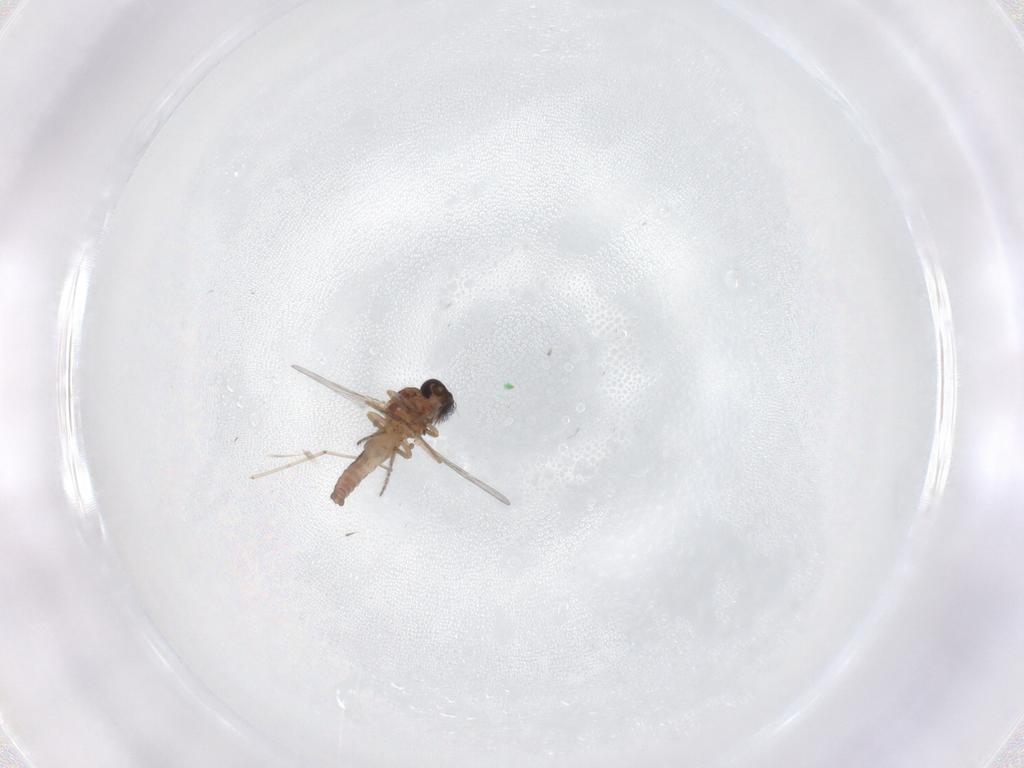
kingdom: Animalia
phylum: Arthropoda
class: Insecta
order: Diptera
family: Ceratopogonidae
